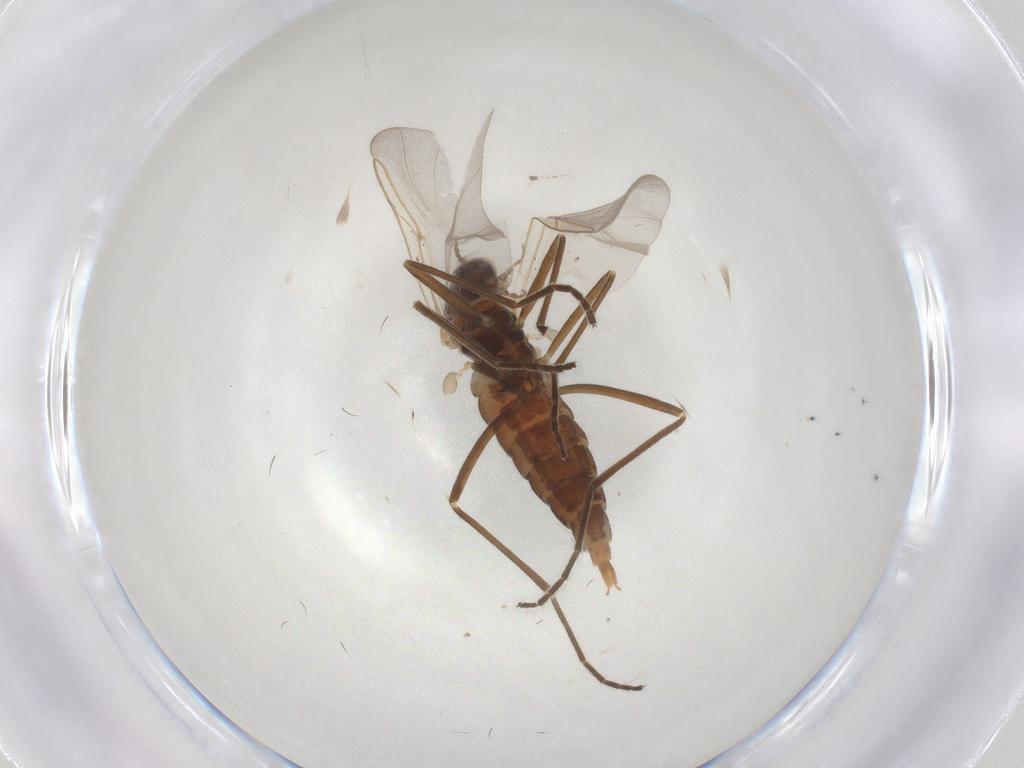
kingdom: Animalia
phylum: Arthropoda
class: Insecta
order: Diptera
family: Cecidomyiidae
